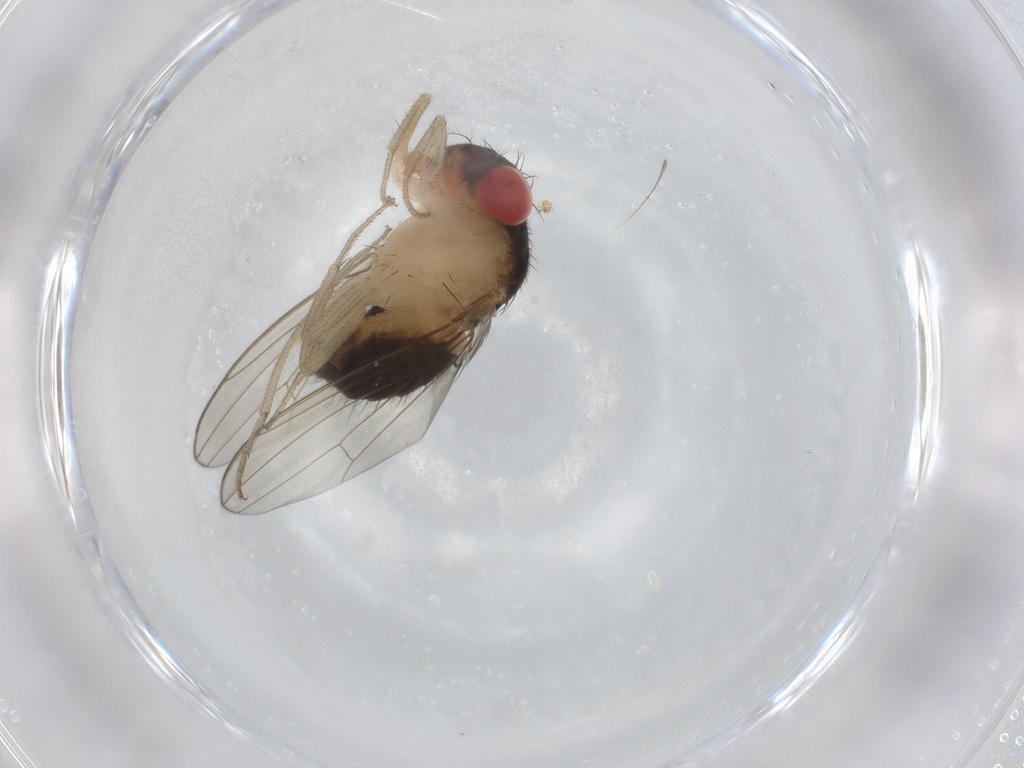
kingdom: Animalia
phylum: Arthropoda
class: Insecta
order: Diptera
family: Drosophilidae
